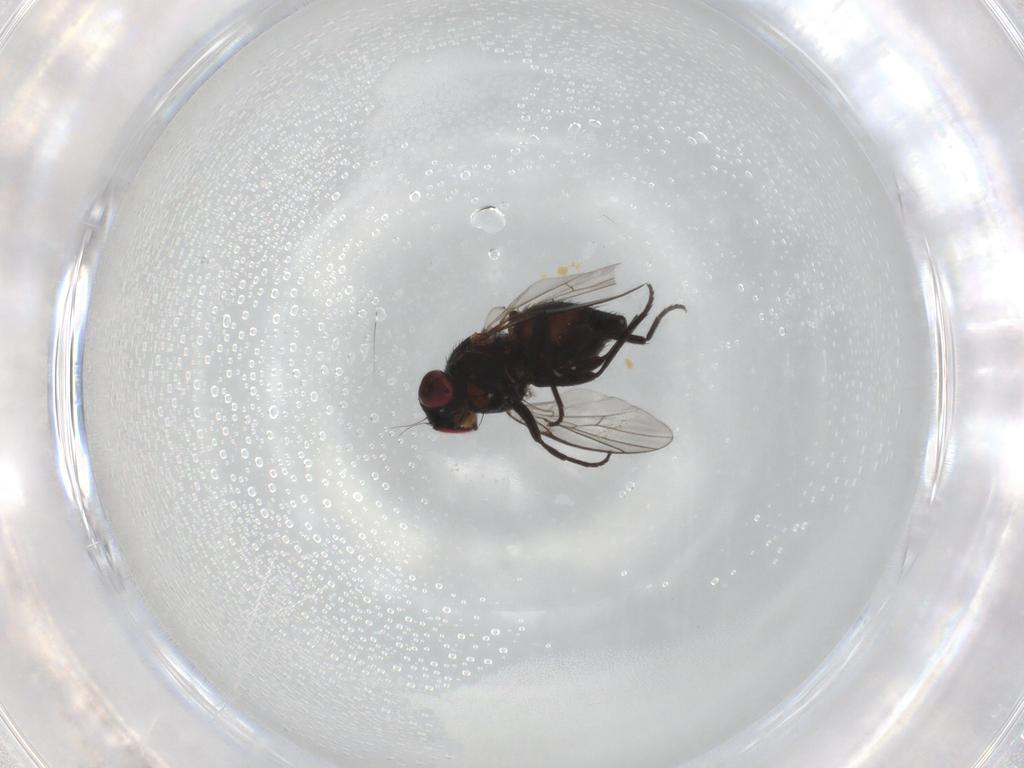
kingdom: Animalia
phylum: Arthropoda
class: Insecta
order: Diptera
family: Agromyzidae
